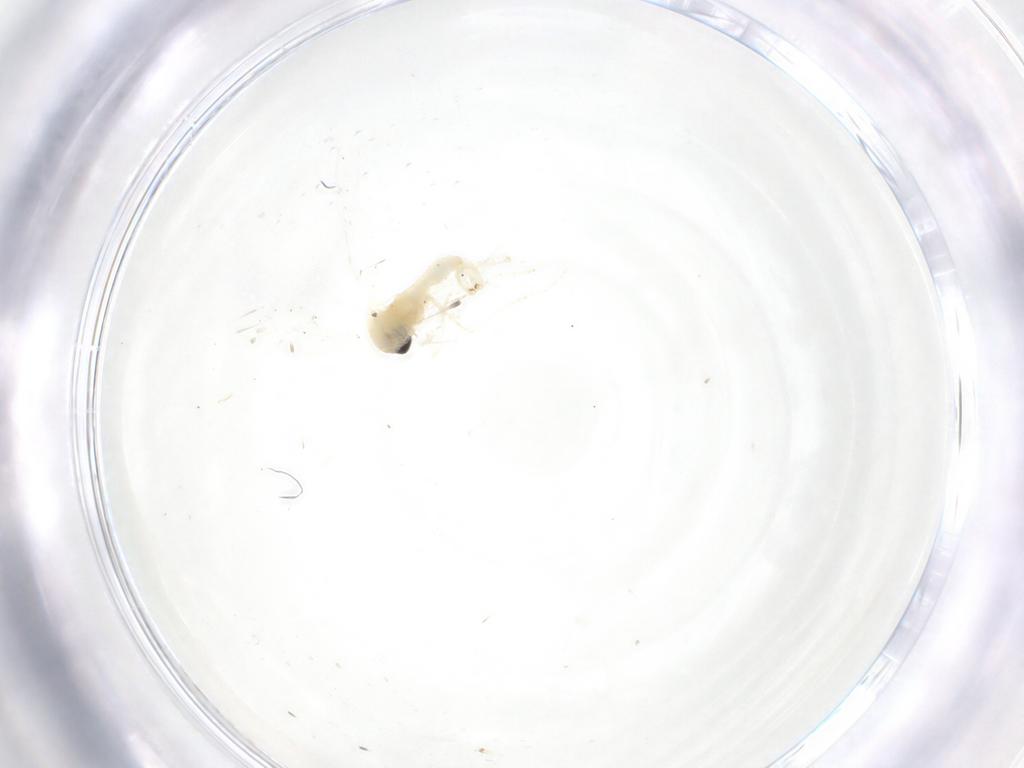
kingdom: Animalia
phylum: Arthropoda
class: Insecta
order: Diptera
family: Cecidomyiidae
